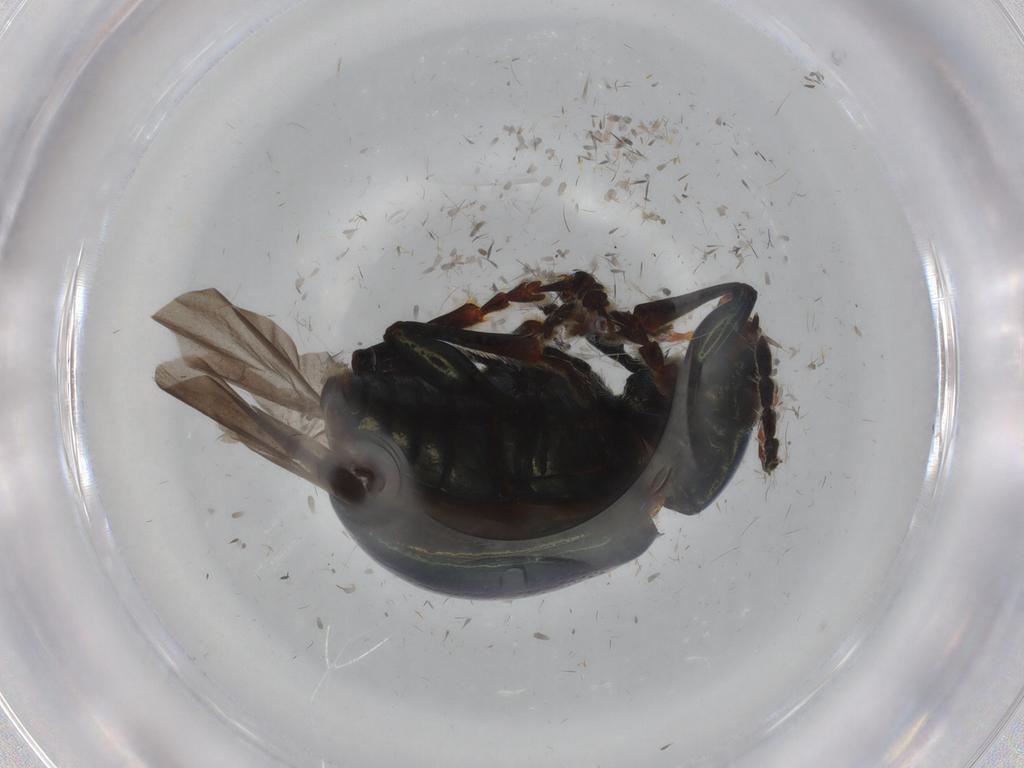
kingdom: Animalia
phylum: Arthropoda
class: Insecta
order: Coleoptera
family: Chrysomelidae
